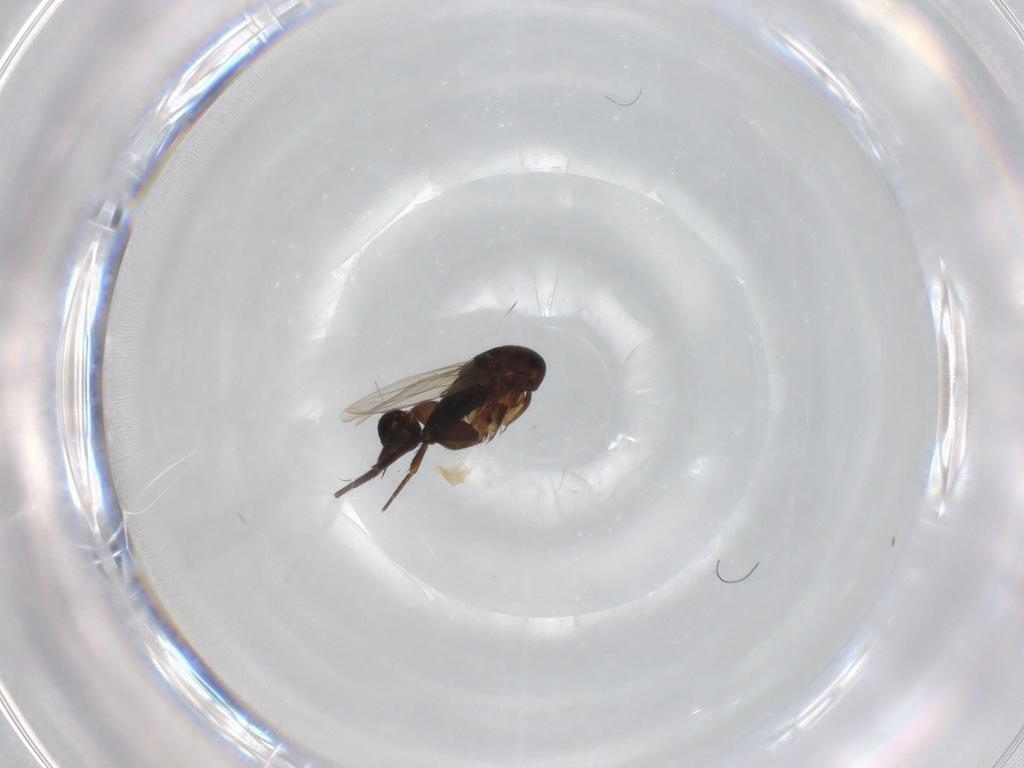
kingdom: Animalia
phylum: Arthropoda
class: Insecta
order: Diptera
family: Phoridae
